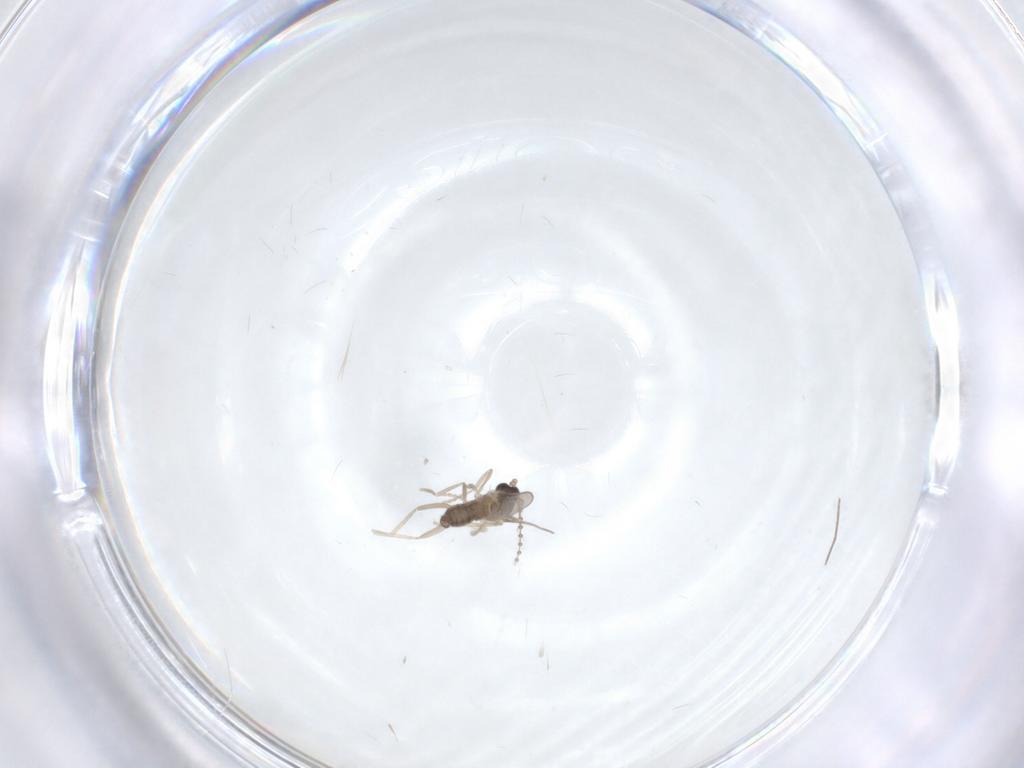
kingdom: Animalia
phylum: Arthropoda
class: Insecta
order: Diptera
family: Cecidomyiidae
